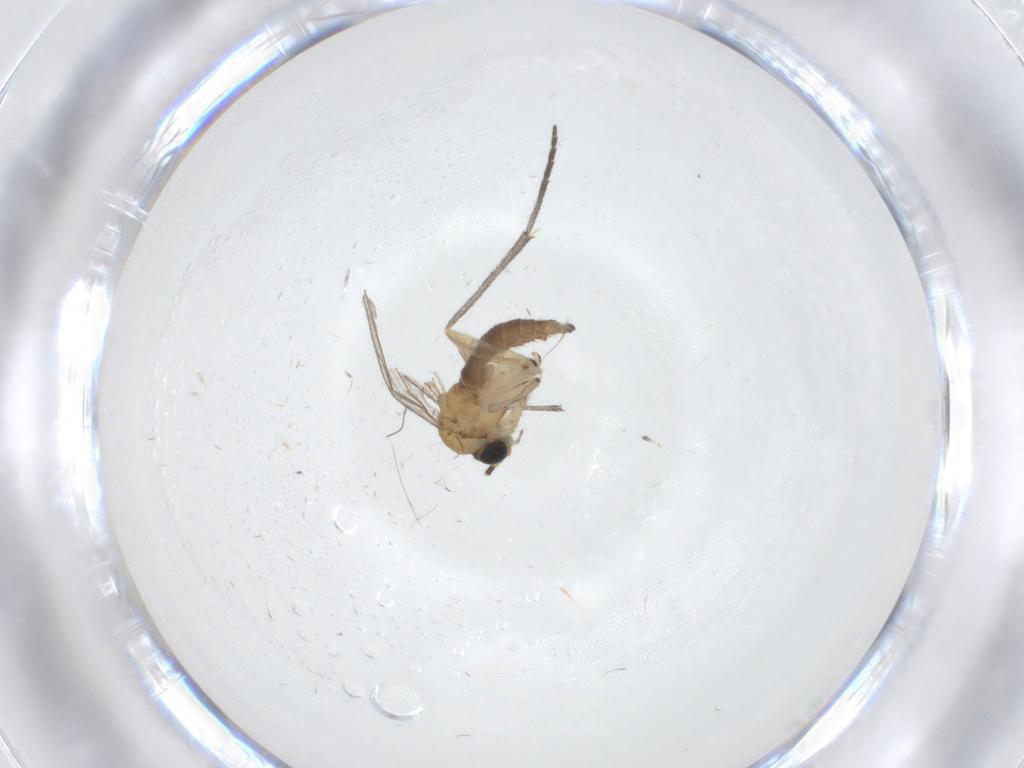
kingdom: Animalia
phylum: Arthropoda
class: Insecta
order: Diptera
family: Sciaridae
